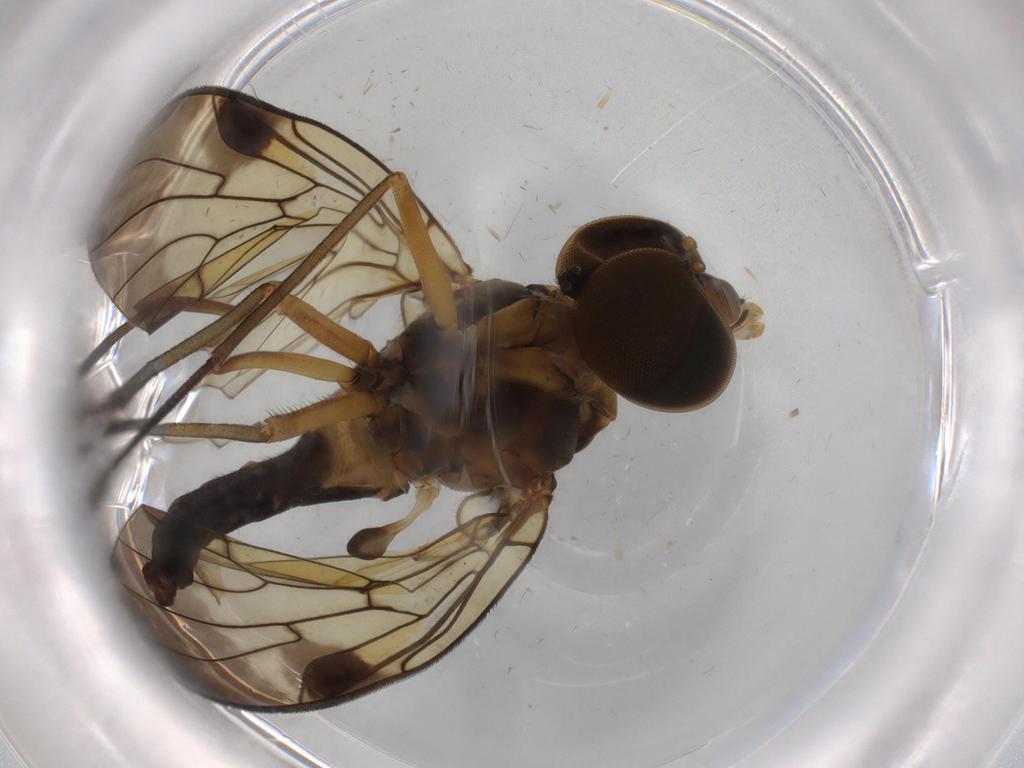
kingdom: Animalia
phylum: Arthropoda
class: Insecta
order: Diptera
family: Cecidomyiidae
